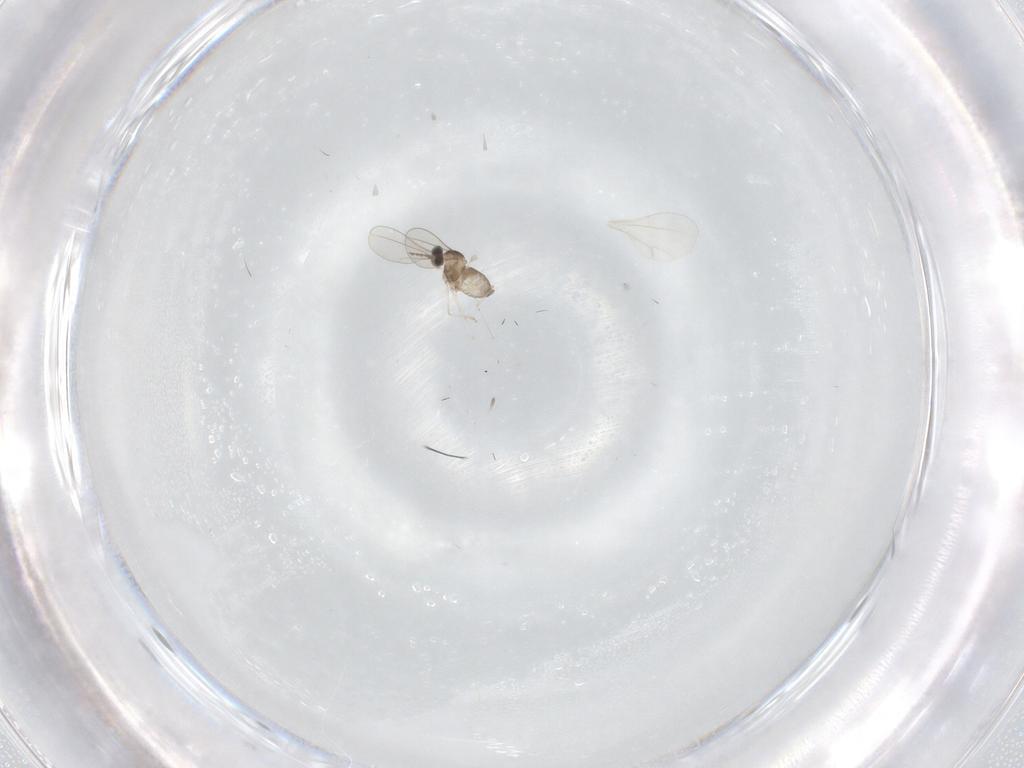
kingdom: Animalia
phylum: Arthropoda
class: Insecta
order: Diptera
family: Cecidomyiidae
